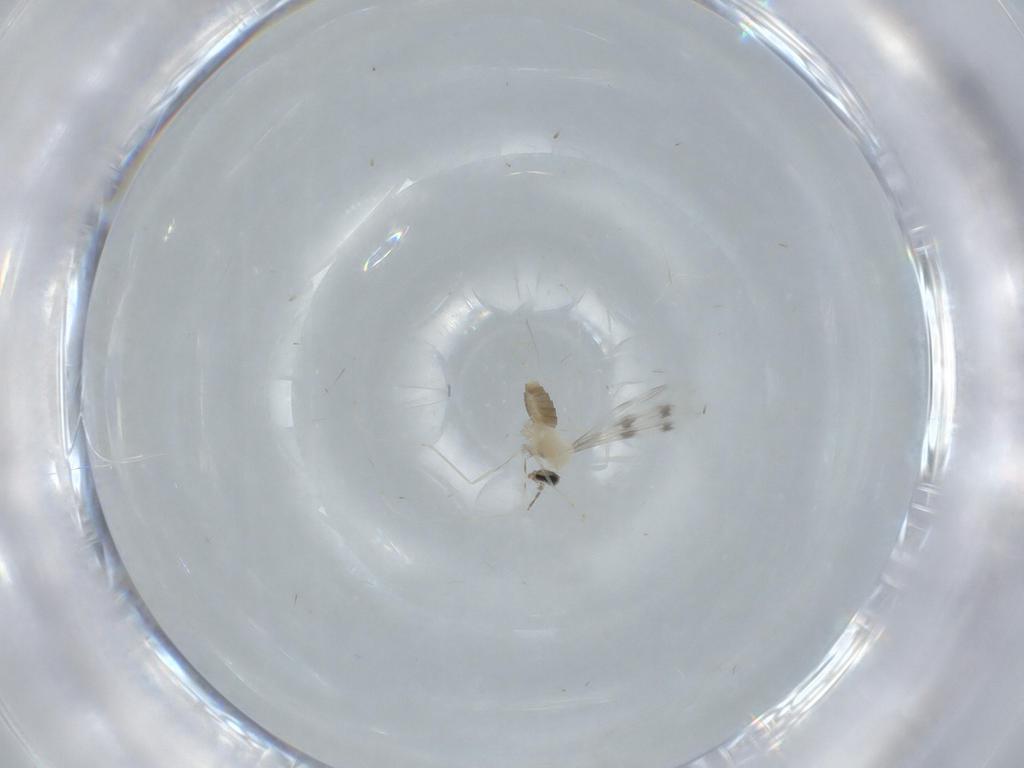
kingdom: Animalia
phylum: Arthropoda
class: Insecta
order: Diptera
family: Cecidomyiidae
